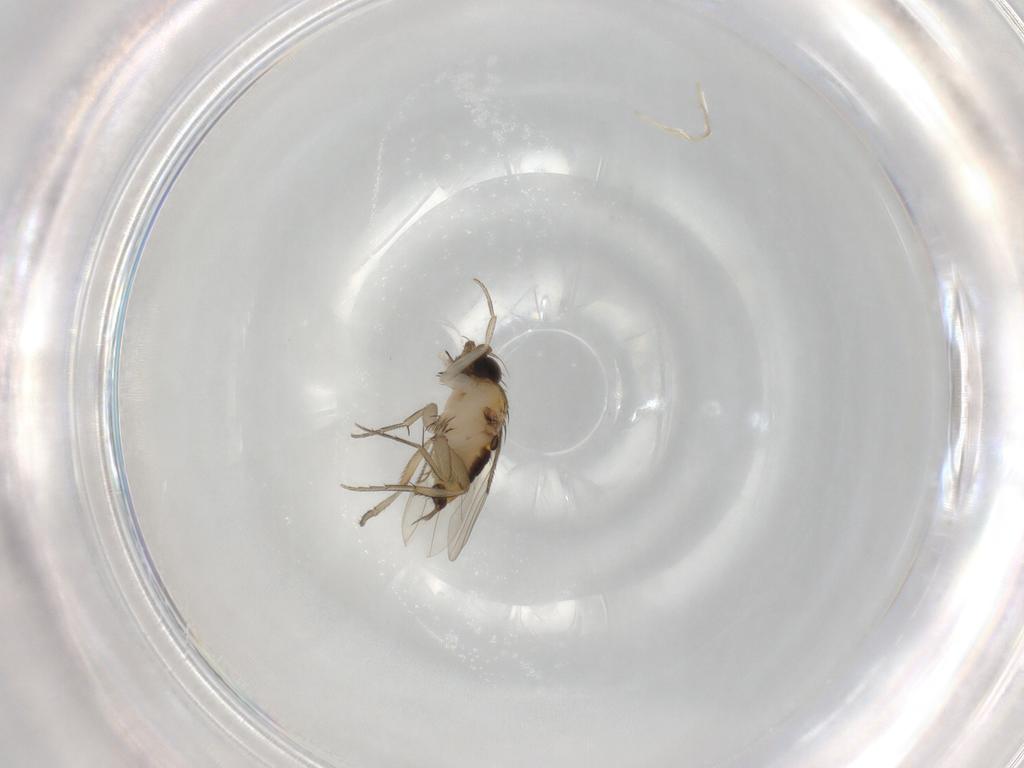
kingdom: Animalia
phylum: Arthropoda
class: Insecta
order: Diptera
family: Phoridae
